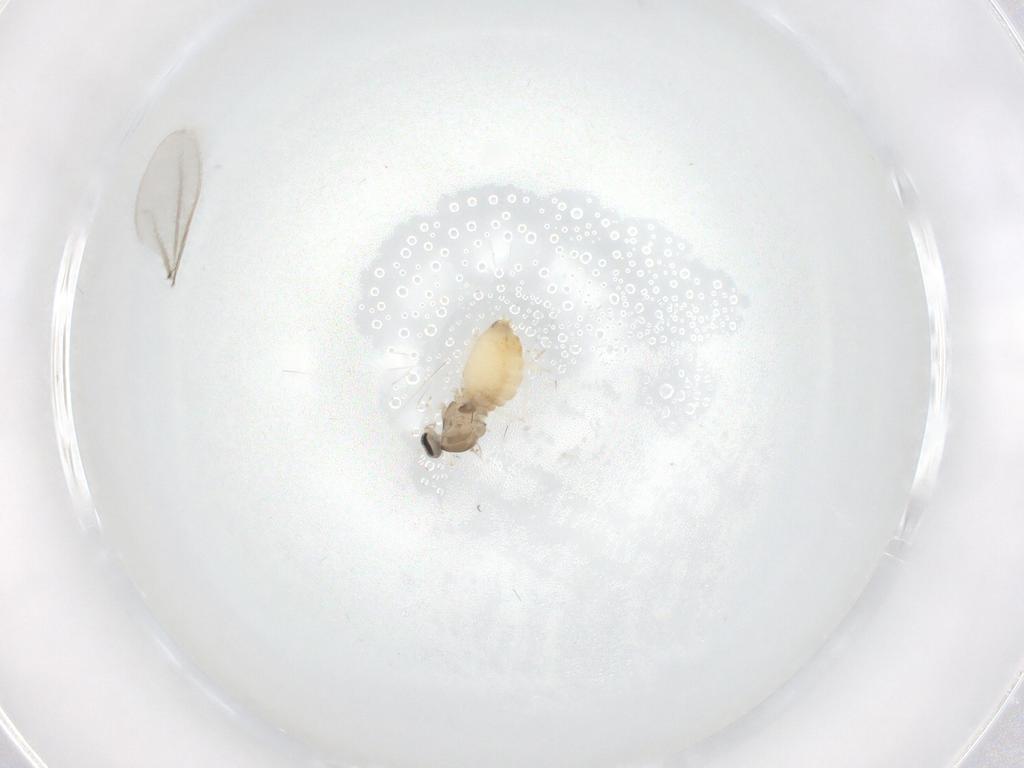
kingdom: Animalia
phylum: Arthropoda
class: Insecta
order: Diptera
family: Cecidomyiidae
